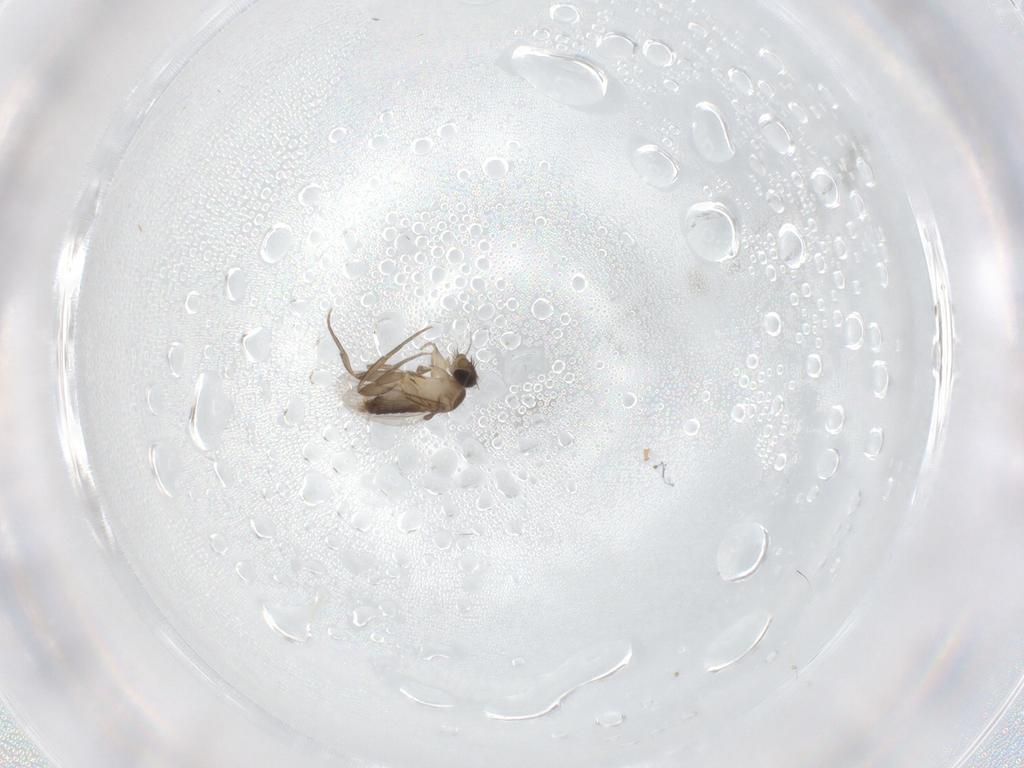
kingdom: Animalia
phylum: Arthropoda
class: Insecta
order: Diptera
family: Phoridae
